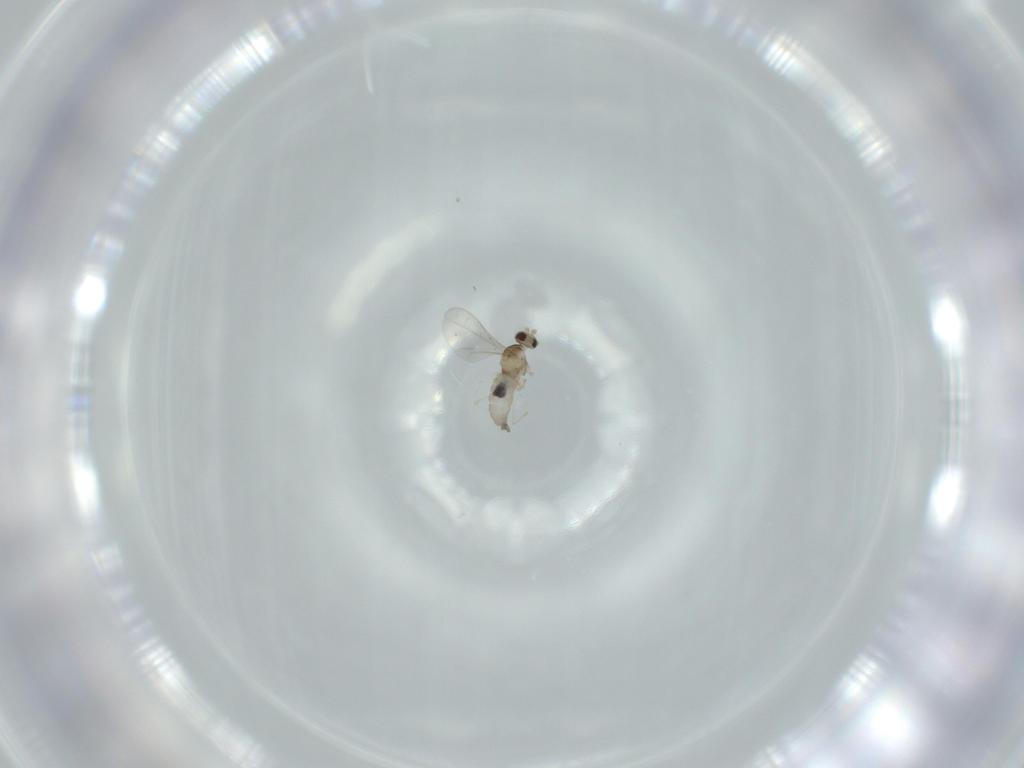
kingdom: Animalia
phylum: Arthropoda
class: Insecta
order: Diptera
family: Cecidomyiidae
